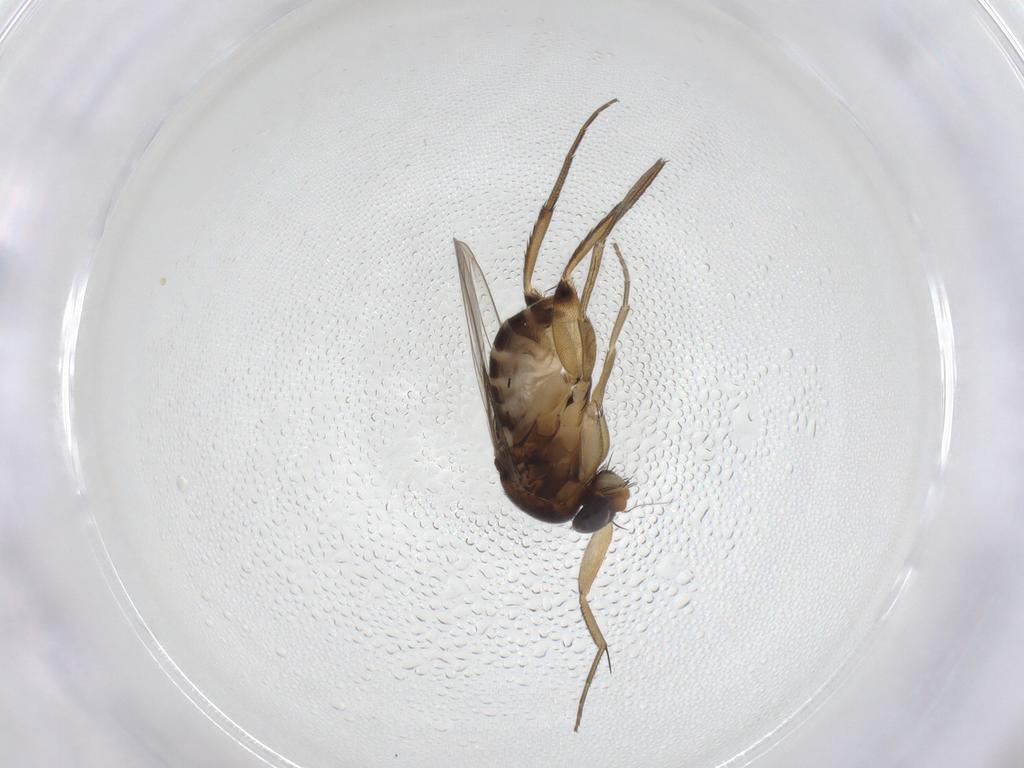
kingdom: Animalia
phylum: Arthropoda
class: Insecta
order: Diptera
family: Phoridae
